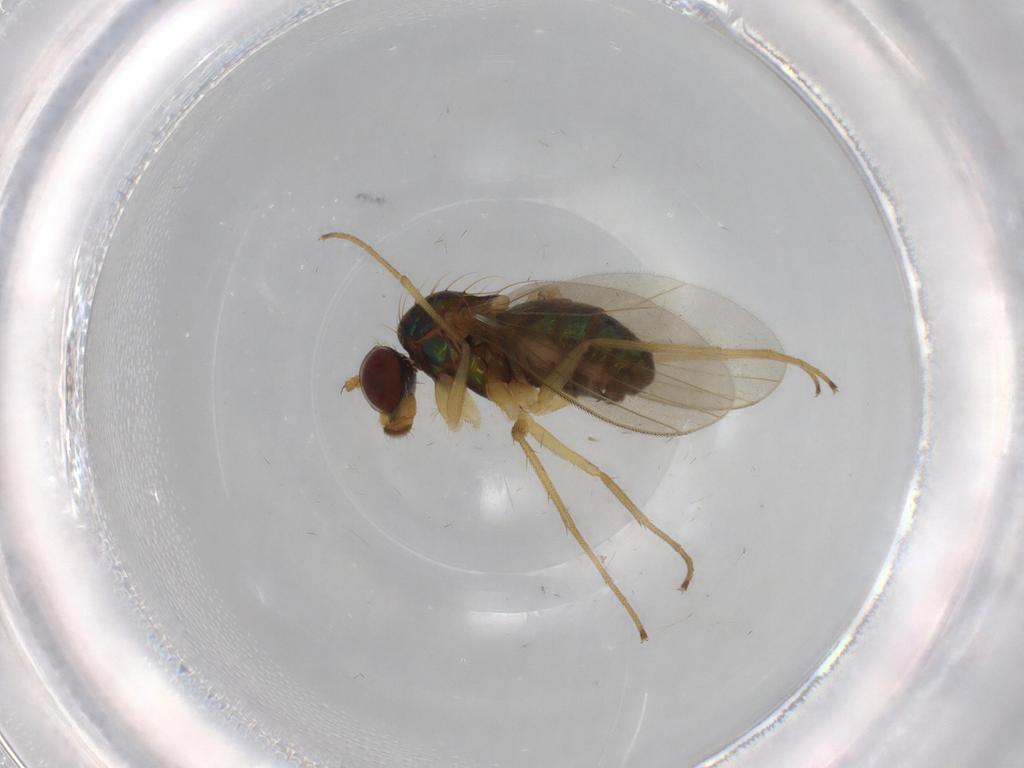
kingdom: Animalia
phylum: Arthropoda
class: Insecta
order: Diptera
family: Dolichopodidae
